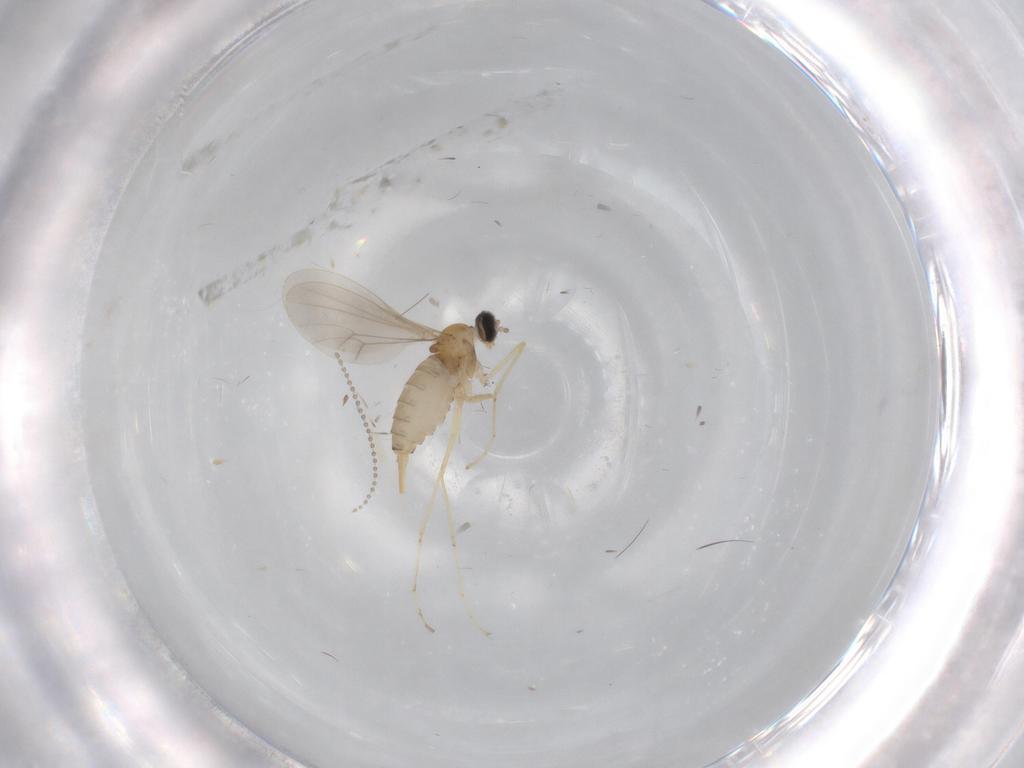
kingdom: Animalia
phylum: Arthropoda
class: Insecta
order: Diptera
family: Cecidomyiidae
